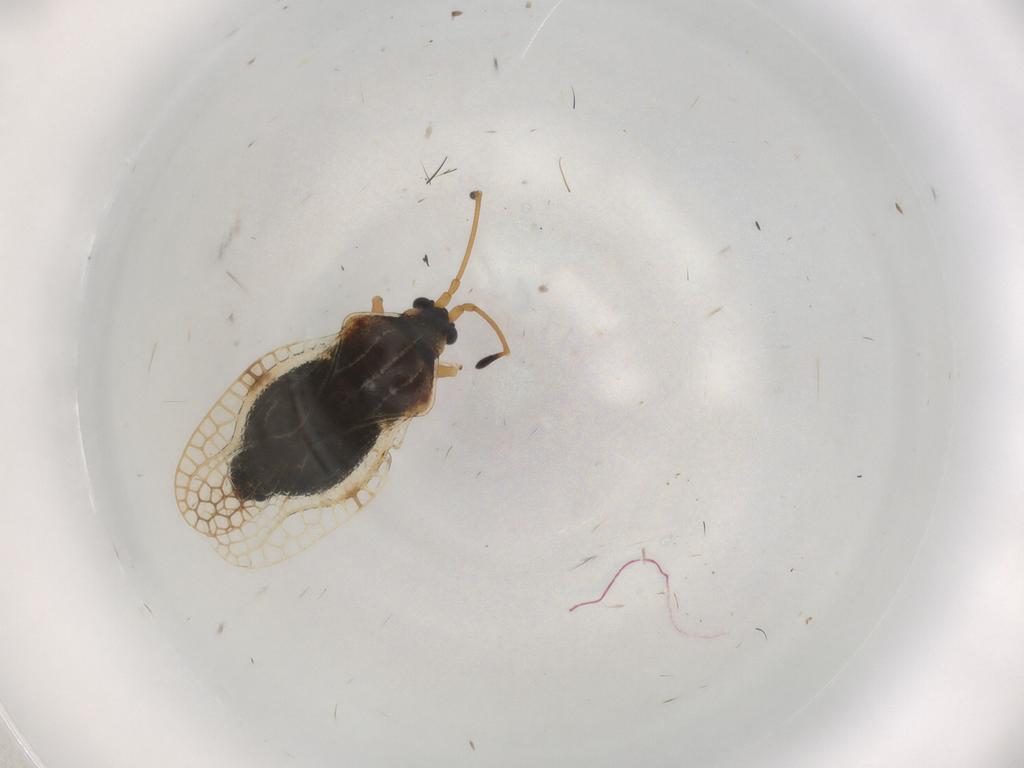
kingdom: Animalia
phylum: Arthropoda
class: Insecta
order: Hemiptera
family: Tingidae
